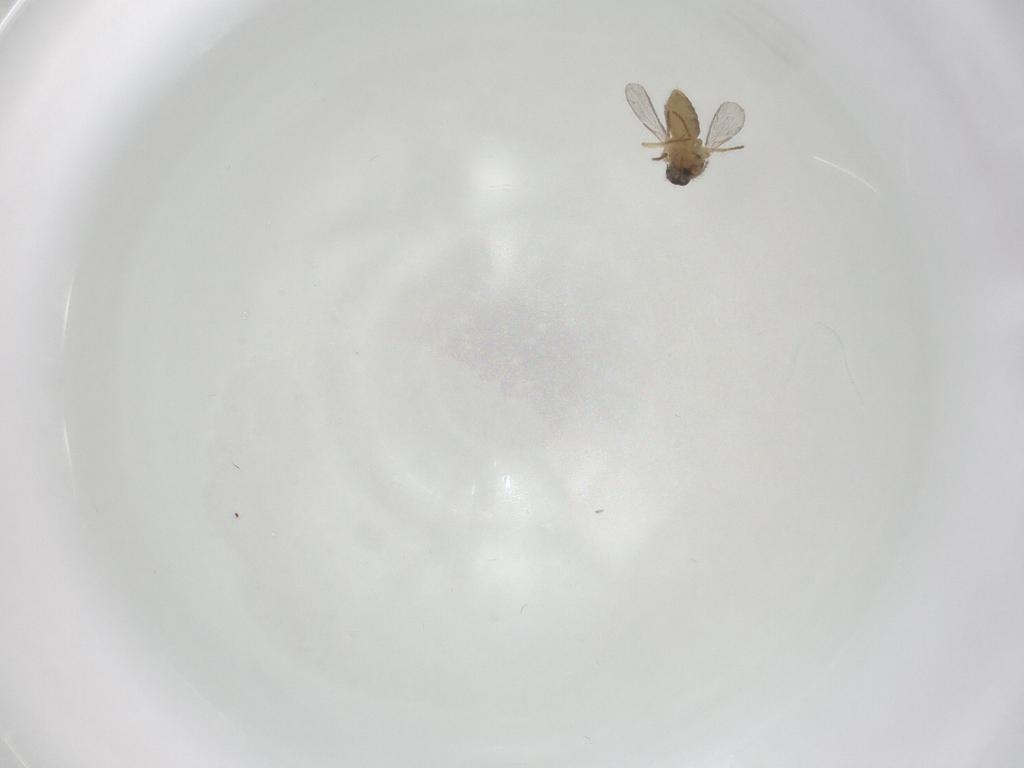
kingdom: Animalia
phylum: Arthropoda
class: Insecta
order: Diptera
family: Ceratopogonidae
